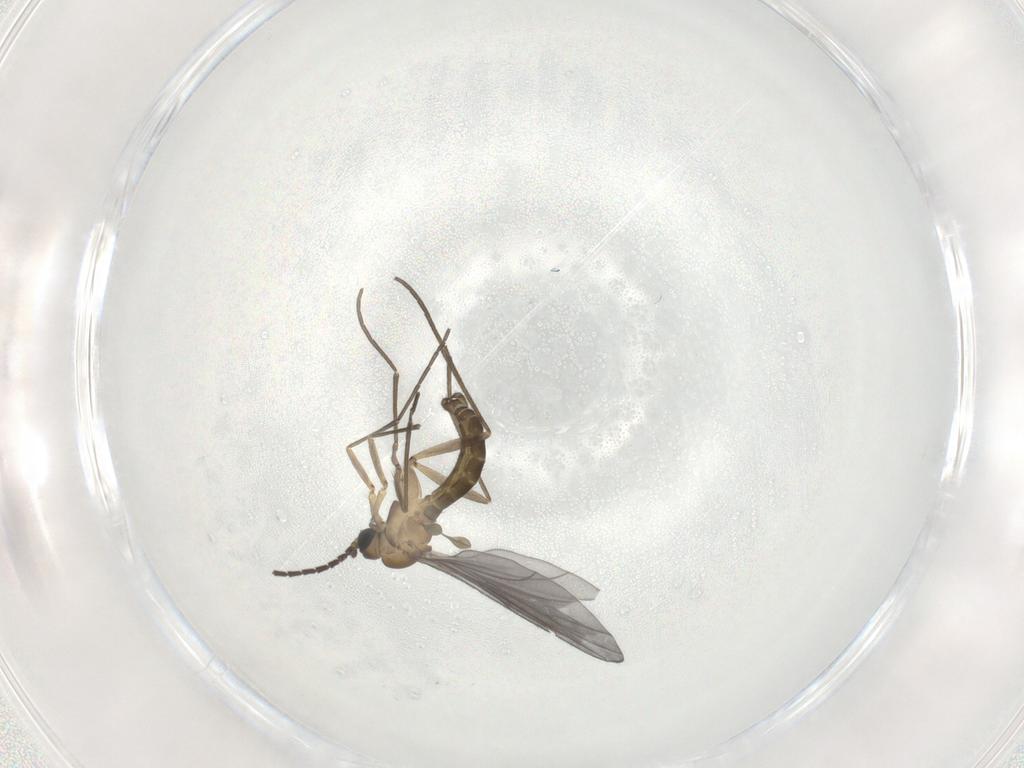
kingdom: Animalia
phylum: Arthropoda
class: Insecta
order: Diptera
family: Sciaridae
